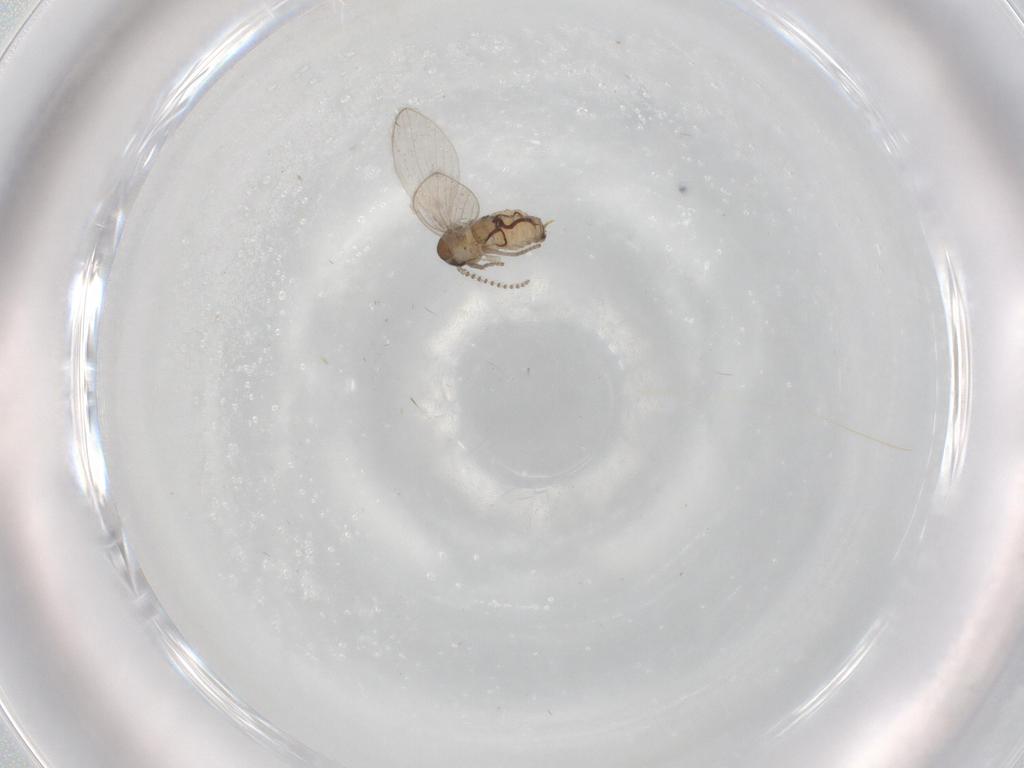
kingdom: Animalia
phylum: Arthropoda
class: Insecta
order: Diptera
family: Psychodidae
